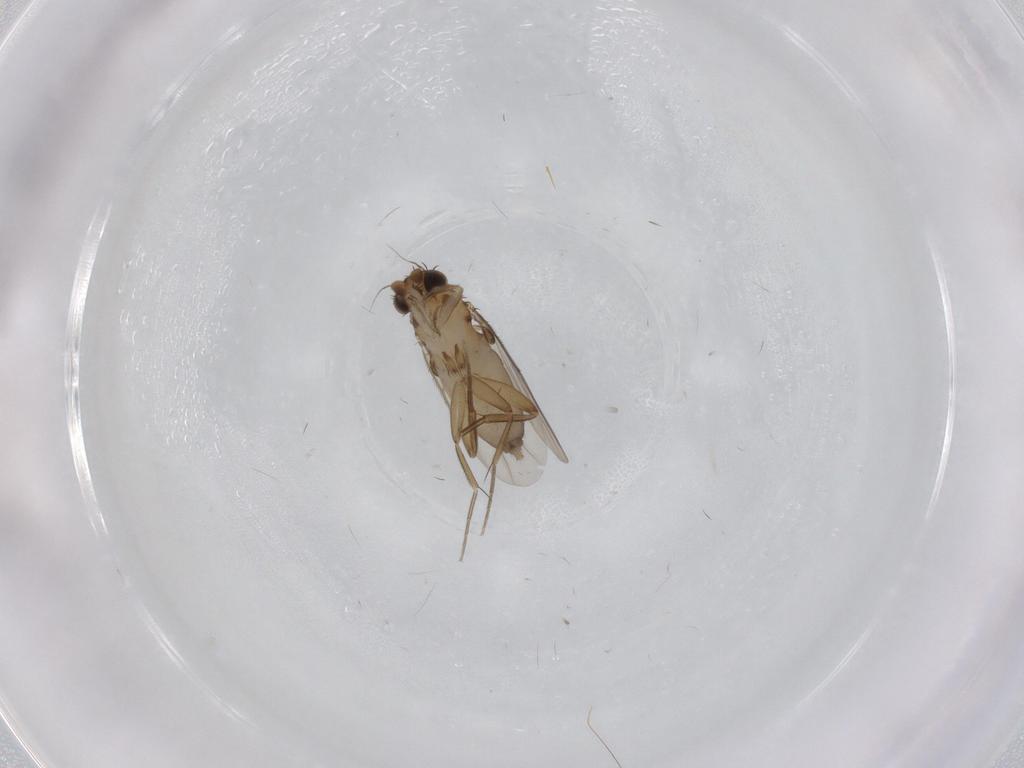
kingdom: Animalia
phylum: Arthropoda
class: Insecta
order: Diptera
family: Phoridae
